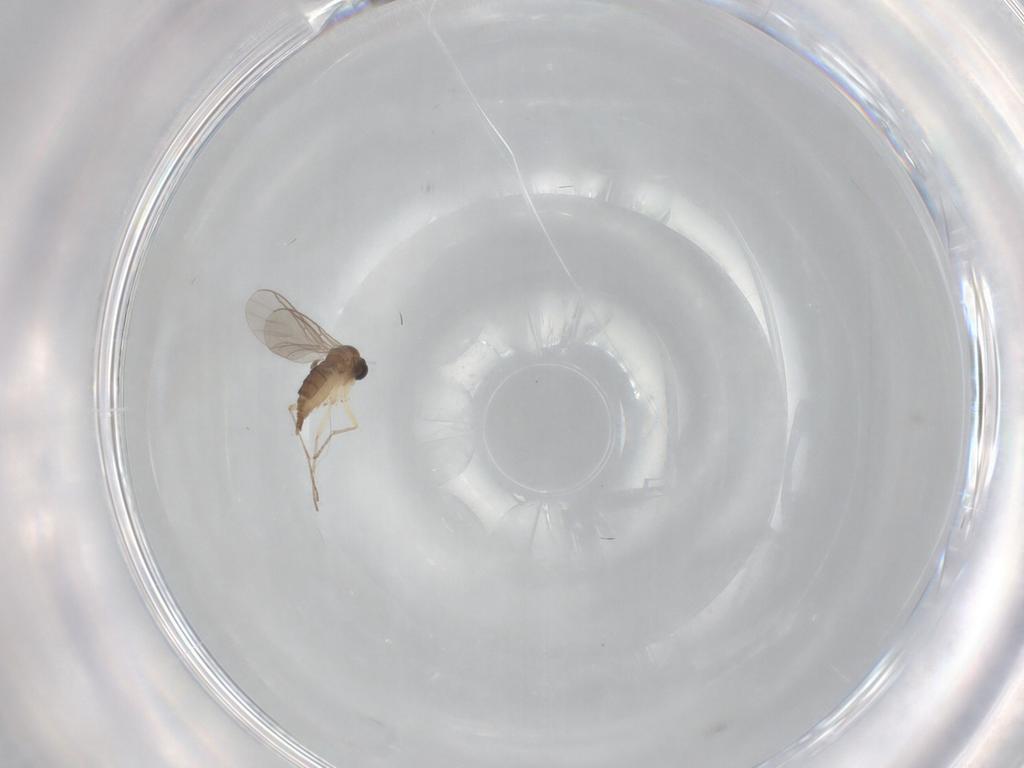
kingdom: Animalia
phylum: Arthropoda
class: Insecta
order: Diptera
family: Sciaridae
